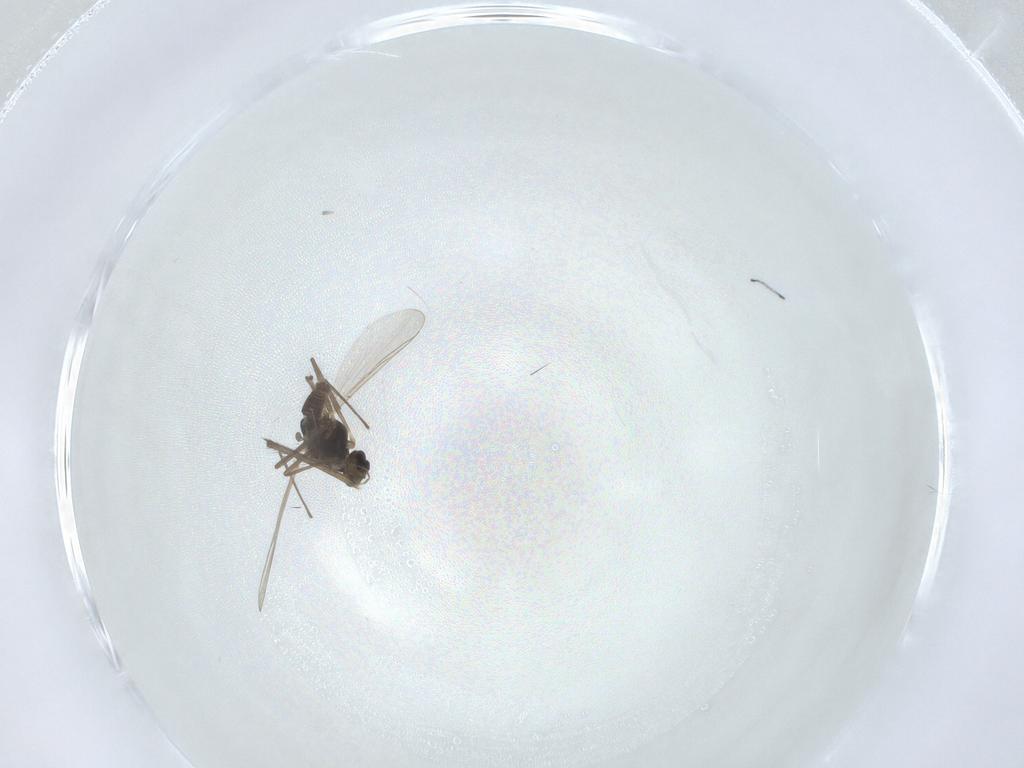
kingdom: Animalia
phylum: Arthropoda
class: Insecta
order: Diptera
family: Chironomidae
